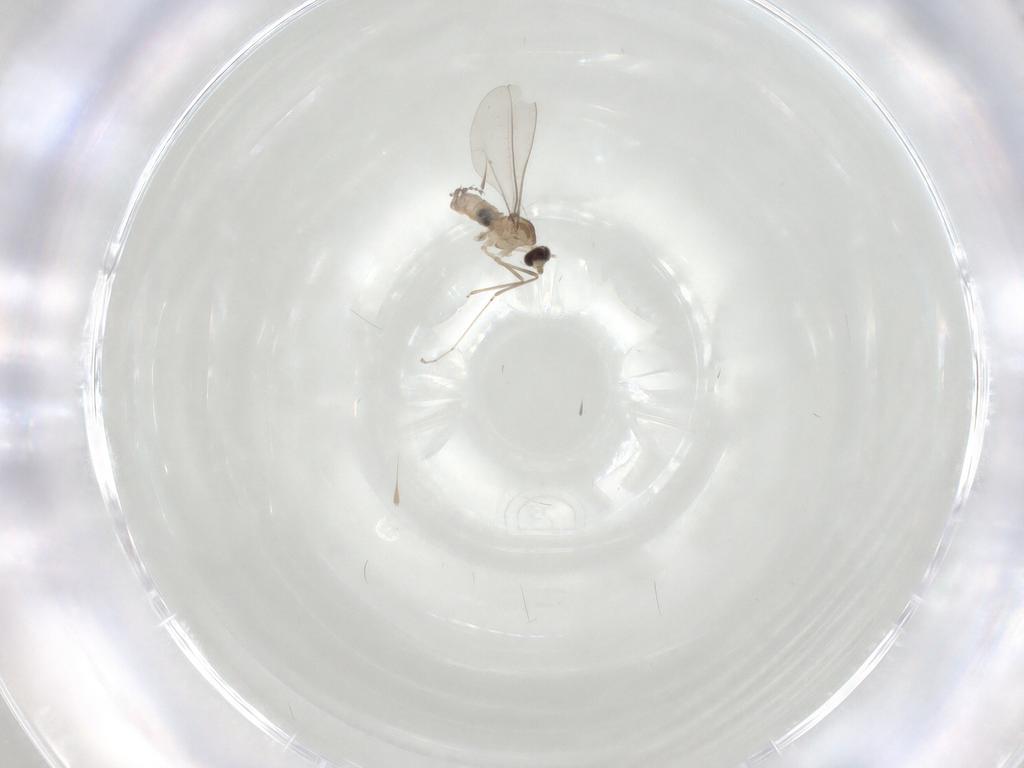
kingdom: Animalia
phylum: Arthropoda
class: Insecta
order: Diptera
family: Cecidomyiidae
